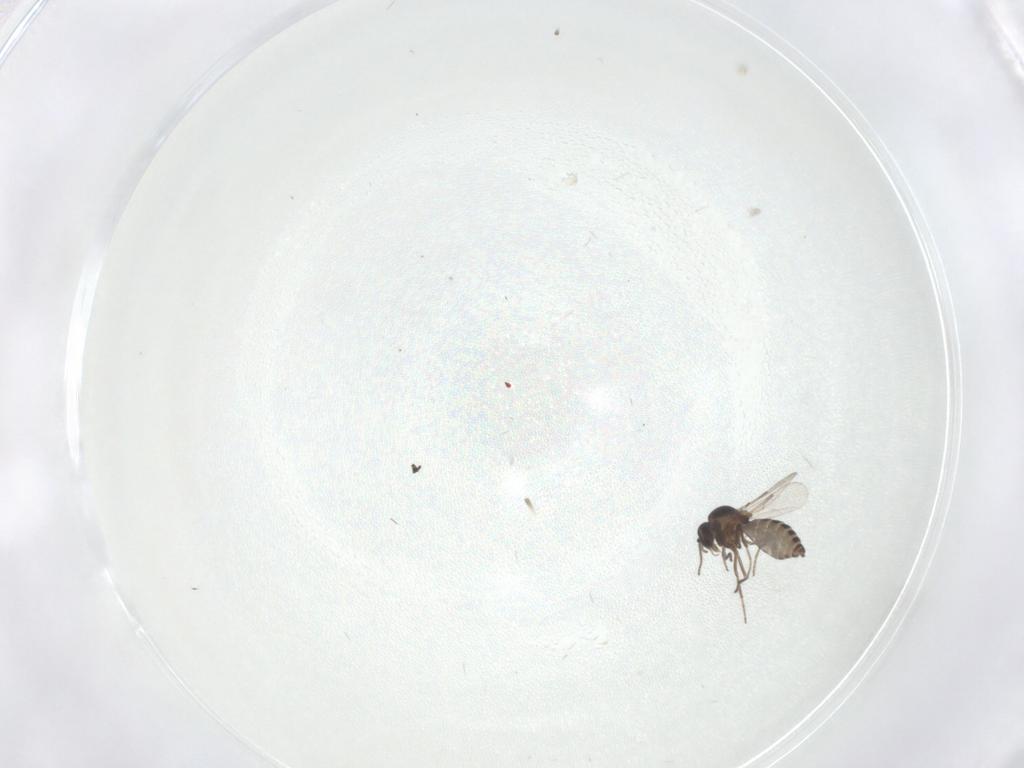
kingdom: Animalia
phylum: Arthropoda
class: Insecta
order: Diptera
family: Ceratopogonidae
